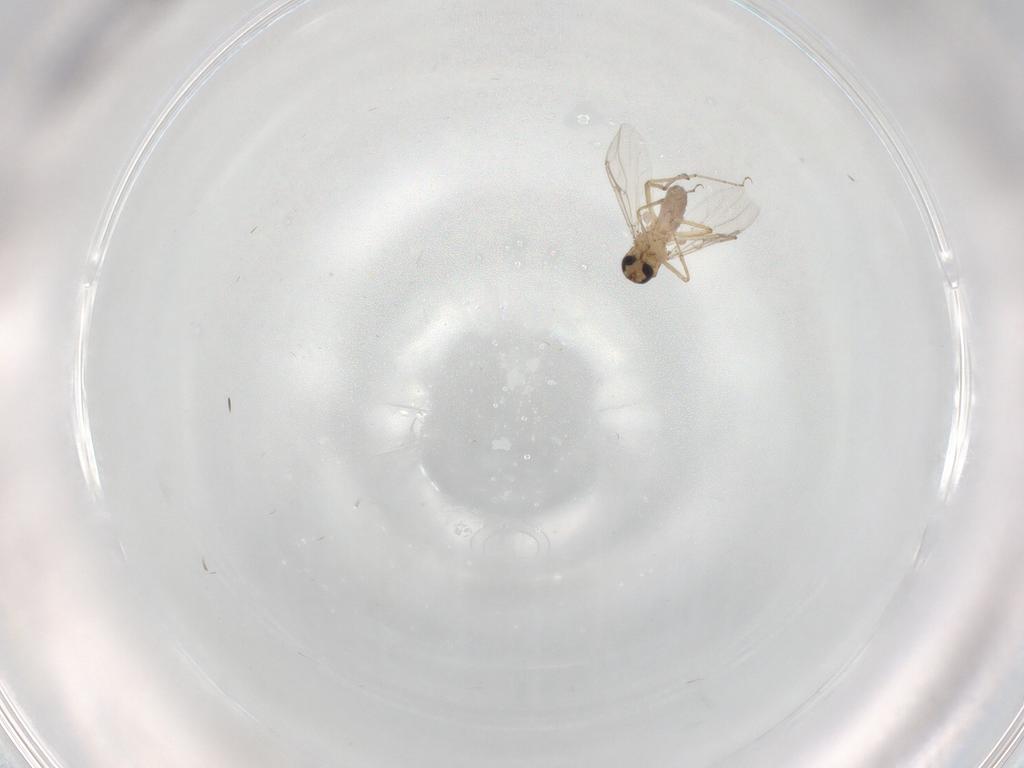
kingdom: Animalia
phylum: Arthropoda
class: Insecta
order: Diptera
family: Ceratopogonidae
